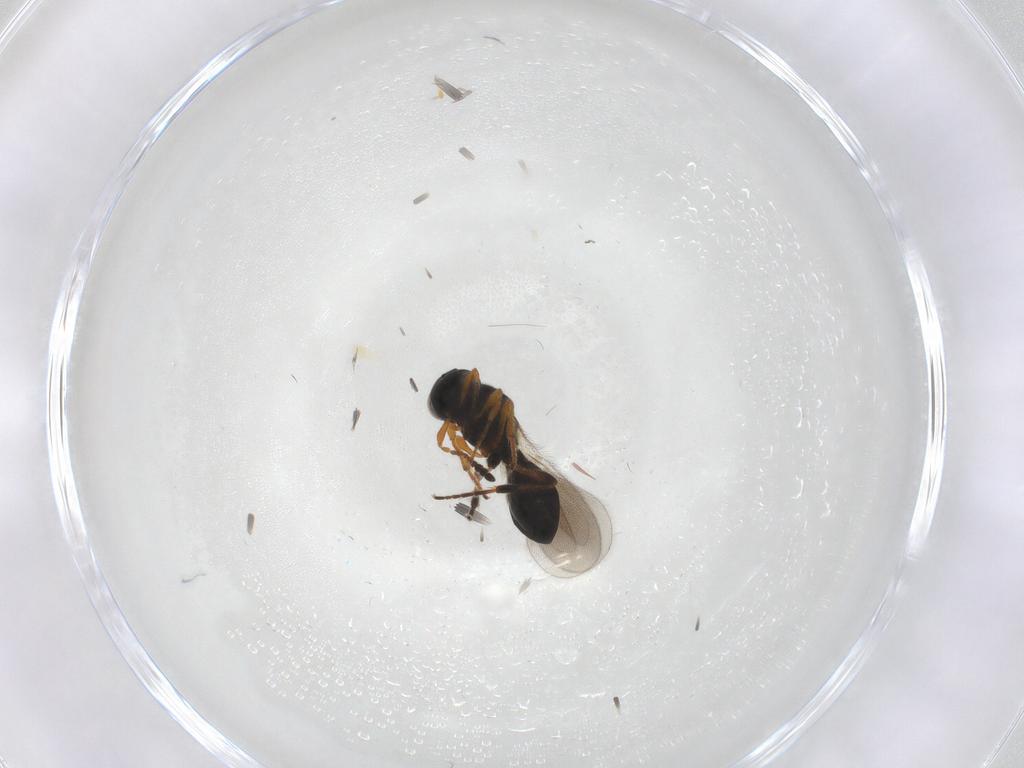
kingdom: Animalia
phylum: Arthropoda
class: Insecta
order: Hymenoptera
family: Platygastridae
